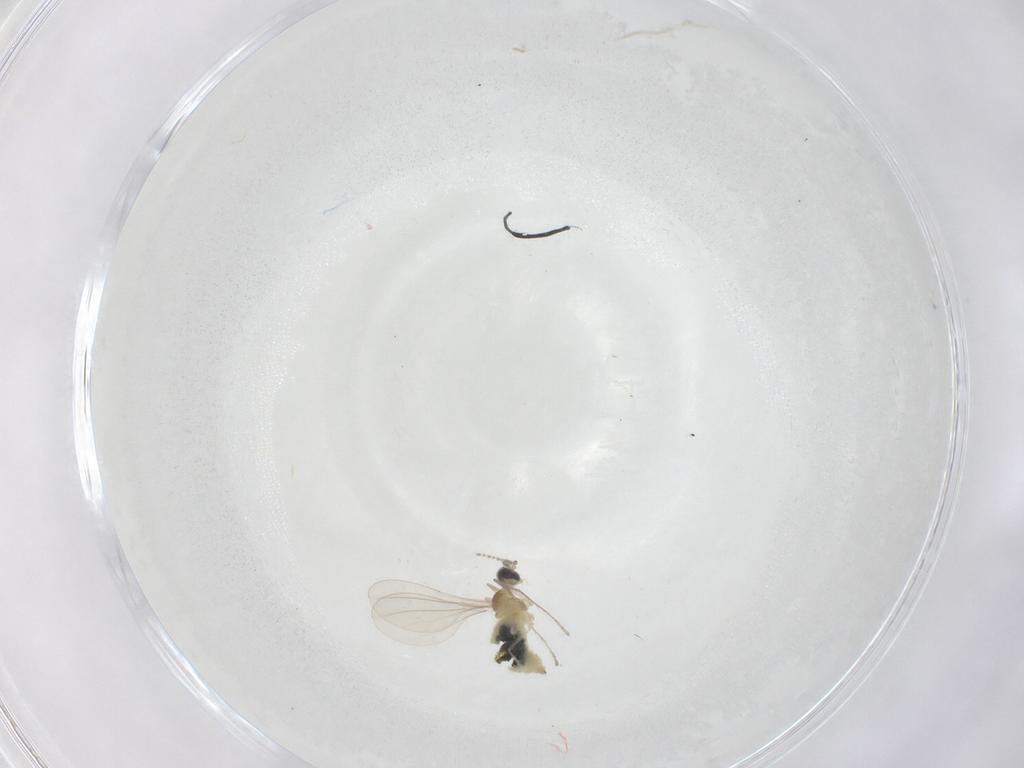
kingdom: Animalia
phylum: Arthropoda
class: Insecta
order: Diptera
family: Cecidomyiidae
